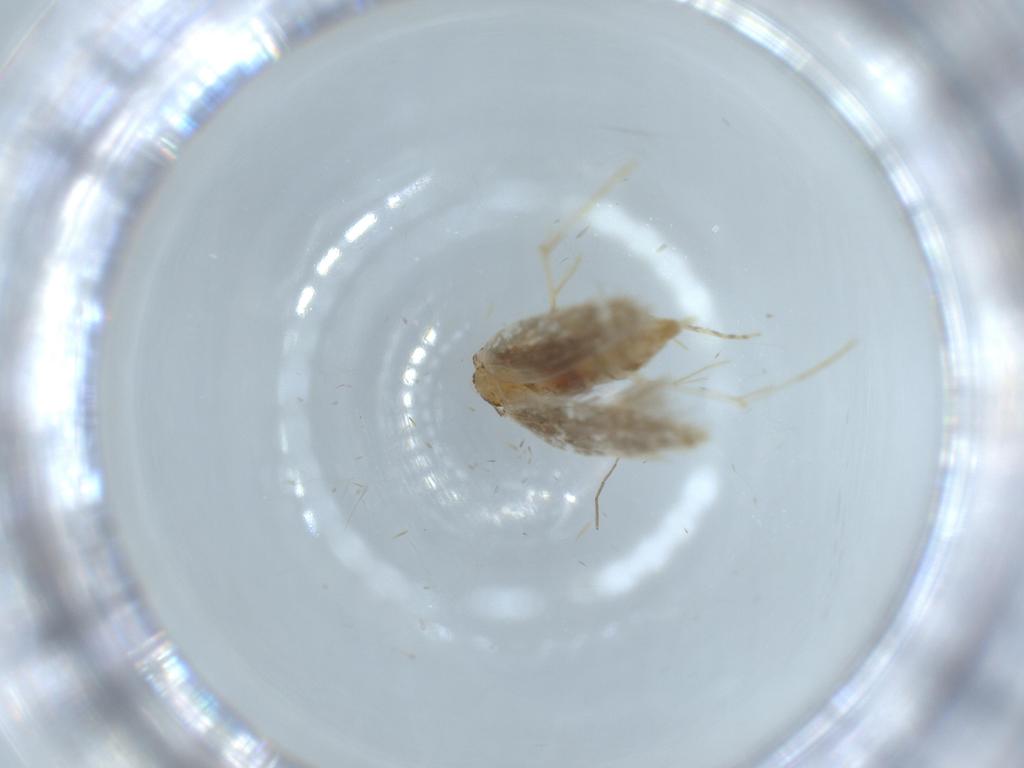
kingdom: Animalia
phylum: Arthropoda
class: Insecta
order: Lepidoptera
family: Tineidae
